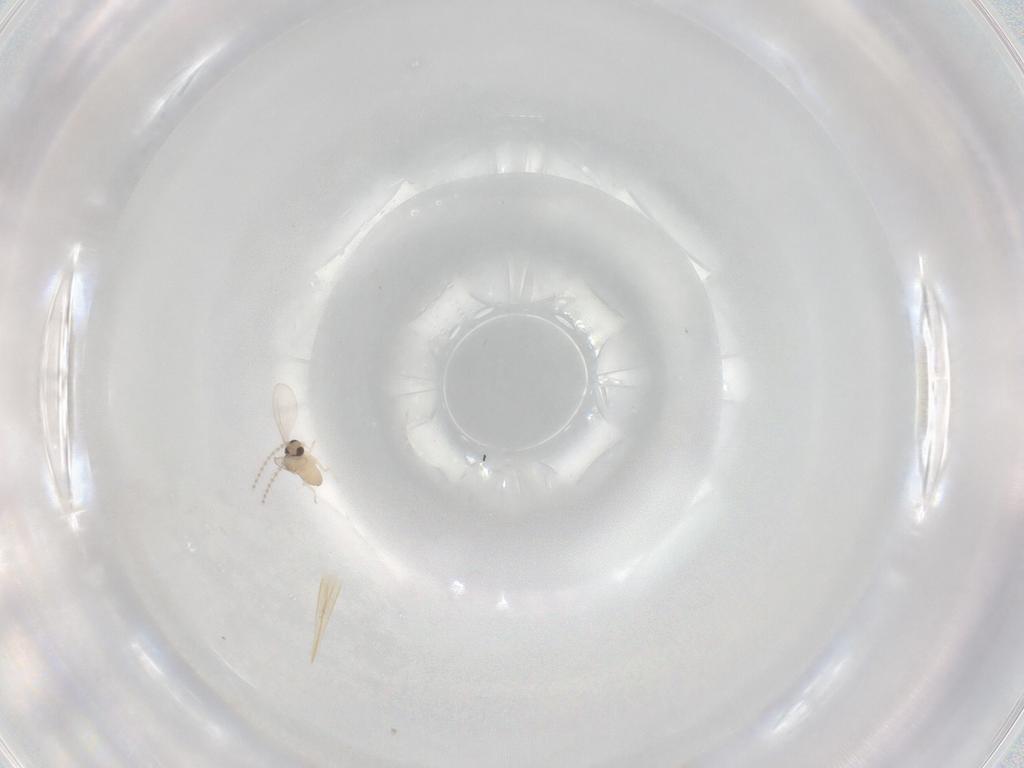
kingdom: Animalia
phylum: Arthropoda
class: Insecta
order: Diptera
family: Cecidomyiidae
